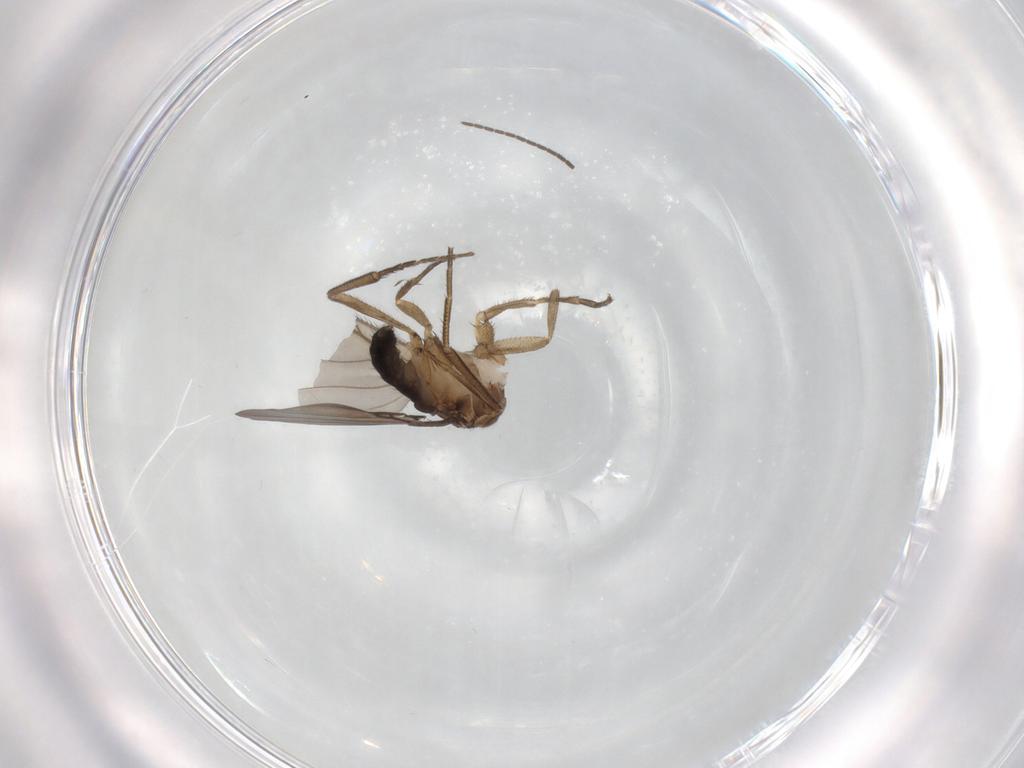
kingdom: Animalia
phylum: Arthropoda
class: Insecta
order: Diptera
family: Phoridae
